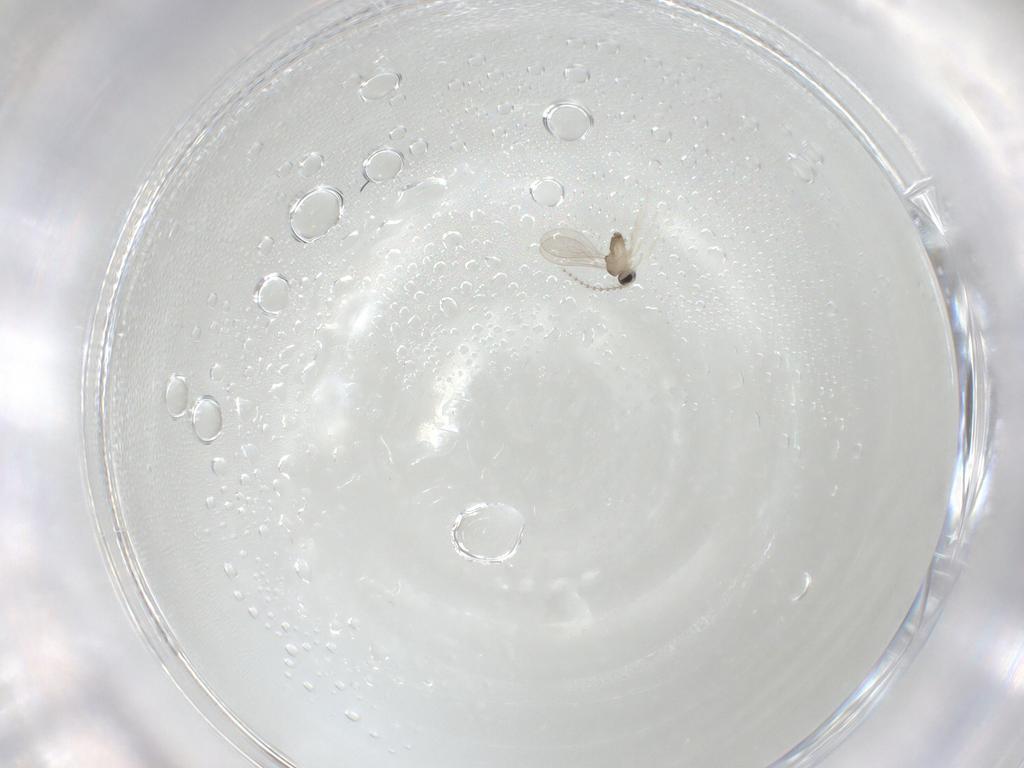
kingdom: Animalia
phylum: Arthropoda
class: Insecta
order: Diptera
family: Cecidomyiidae
